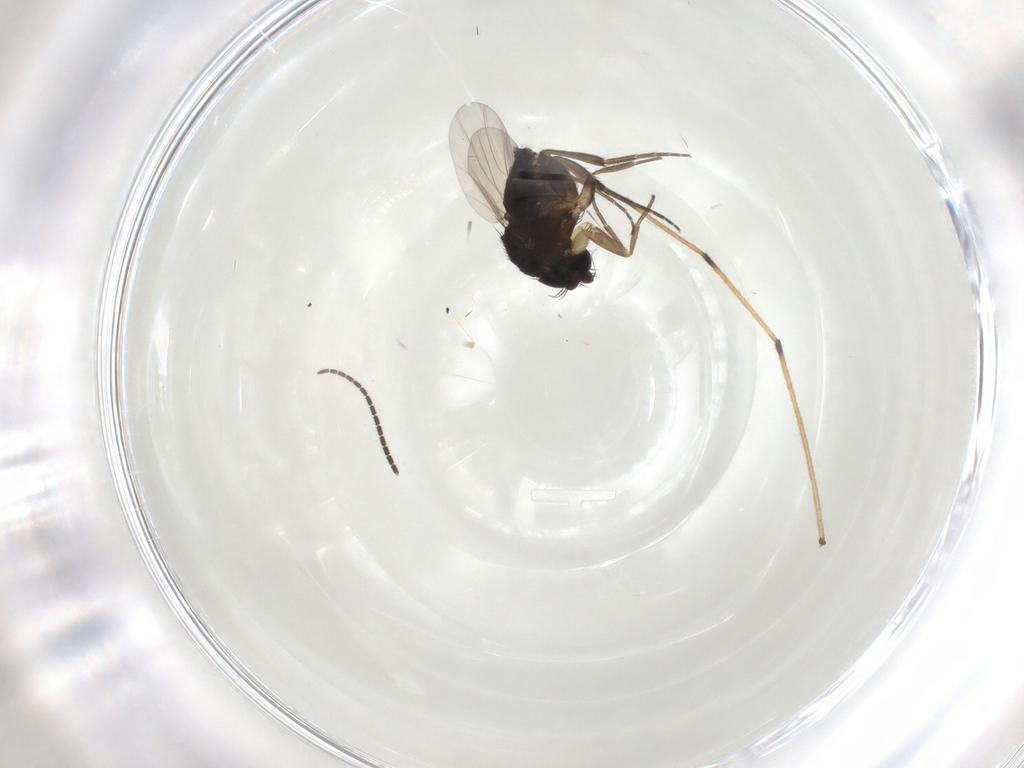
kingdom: Animalia
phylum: Arthropoda
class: Insecta
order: Diptera
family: Phoridae
